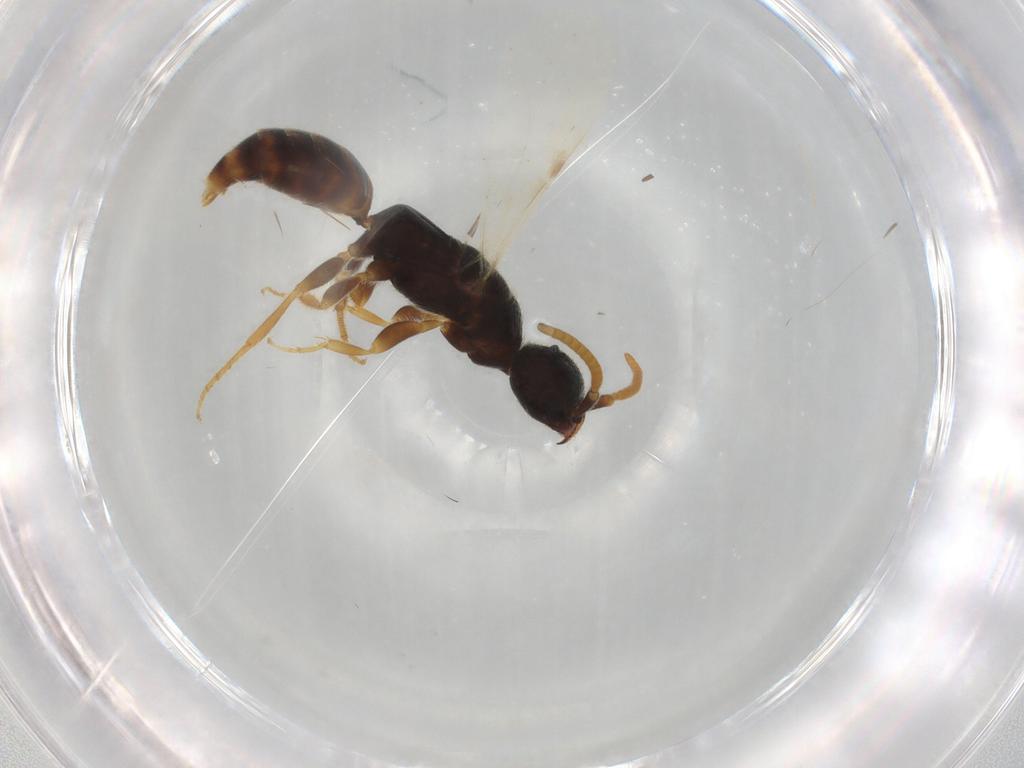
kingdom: Animalia
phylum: Arthropoda
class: Insecta
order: Hymenoptera
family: Bethylidae
